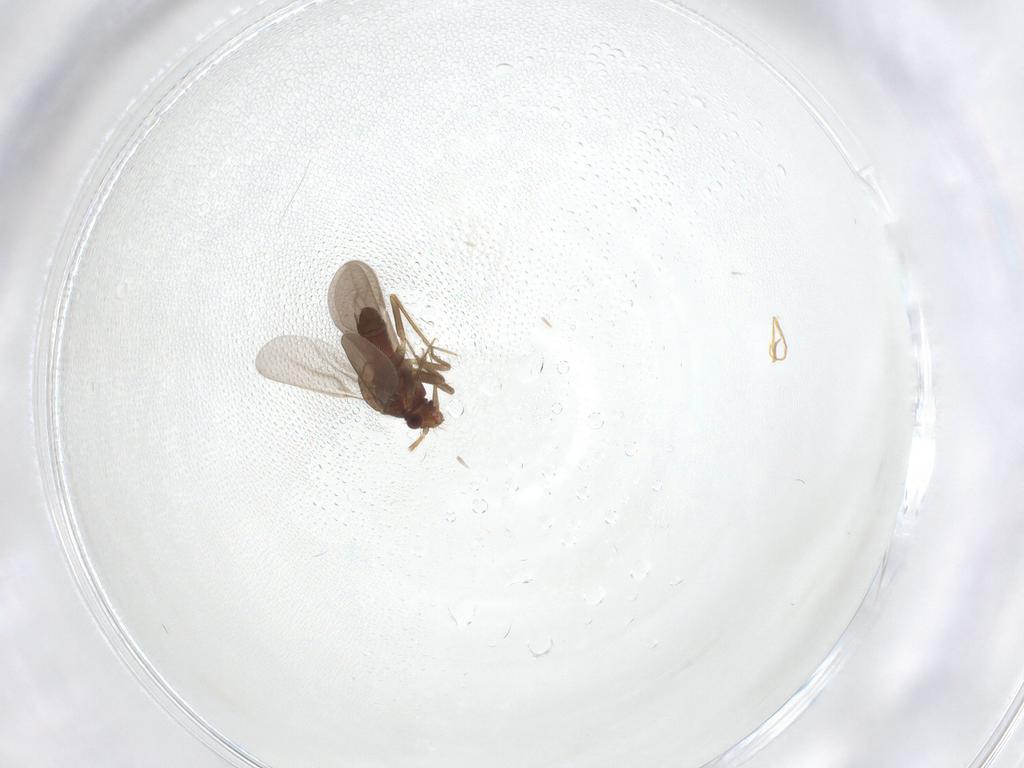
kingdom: Animalia
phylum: Arthropoda
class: Insecta
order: Hemiptera
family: Ceratocombidae
